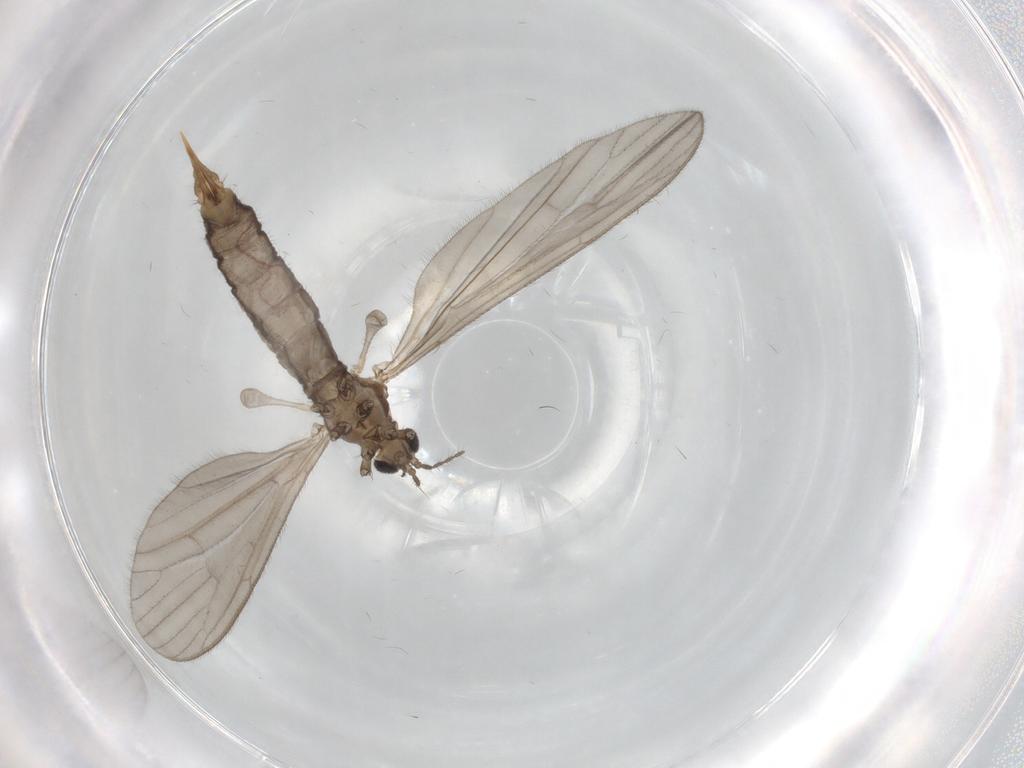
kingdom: Animalia
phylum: Arthropoda
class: Insecta
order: Diptera
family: Limoniidae
